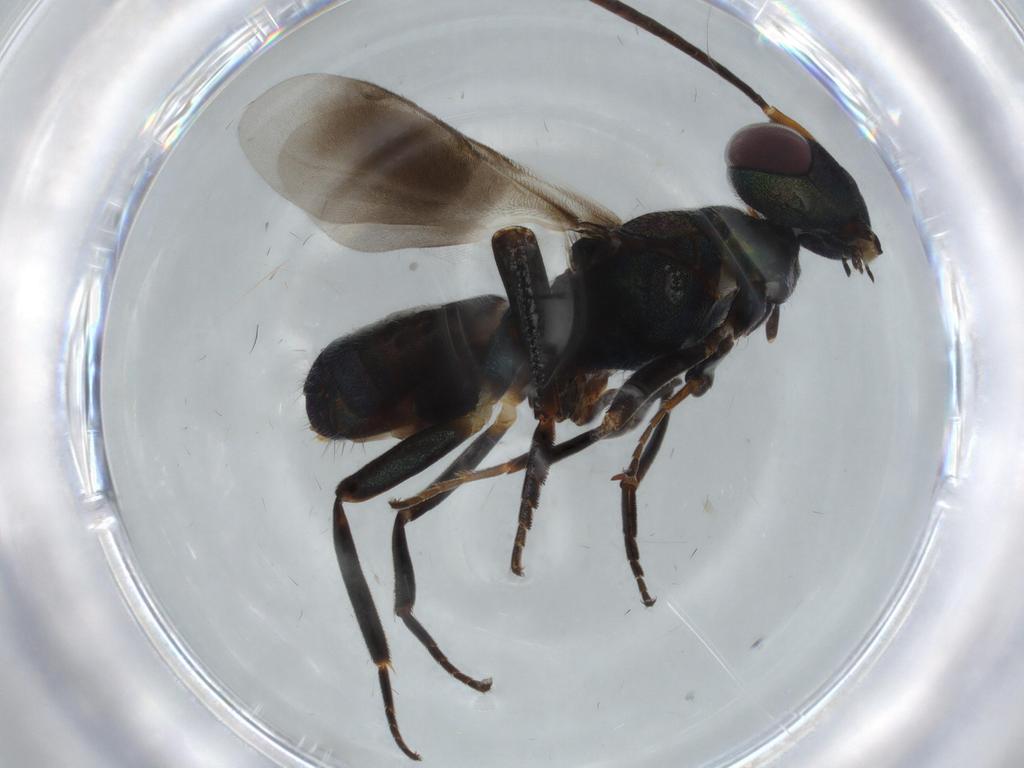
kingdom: Animalia
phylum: Arthropoda
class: Insecta
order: Hymenoptera
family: Eupelmidae
